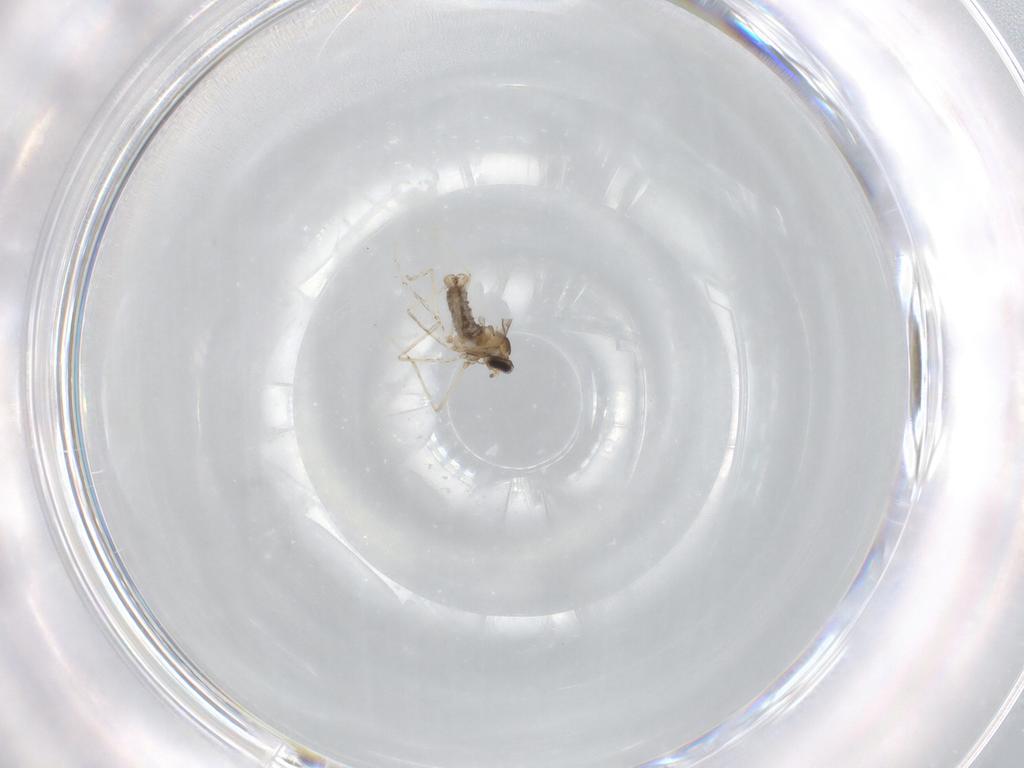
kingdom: Animalia
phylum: Arthropoda
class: Insecta
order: Diptera
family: Cecidomyiidae
